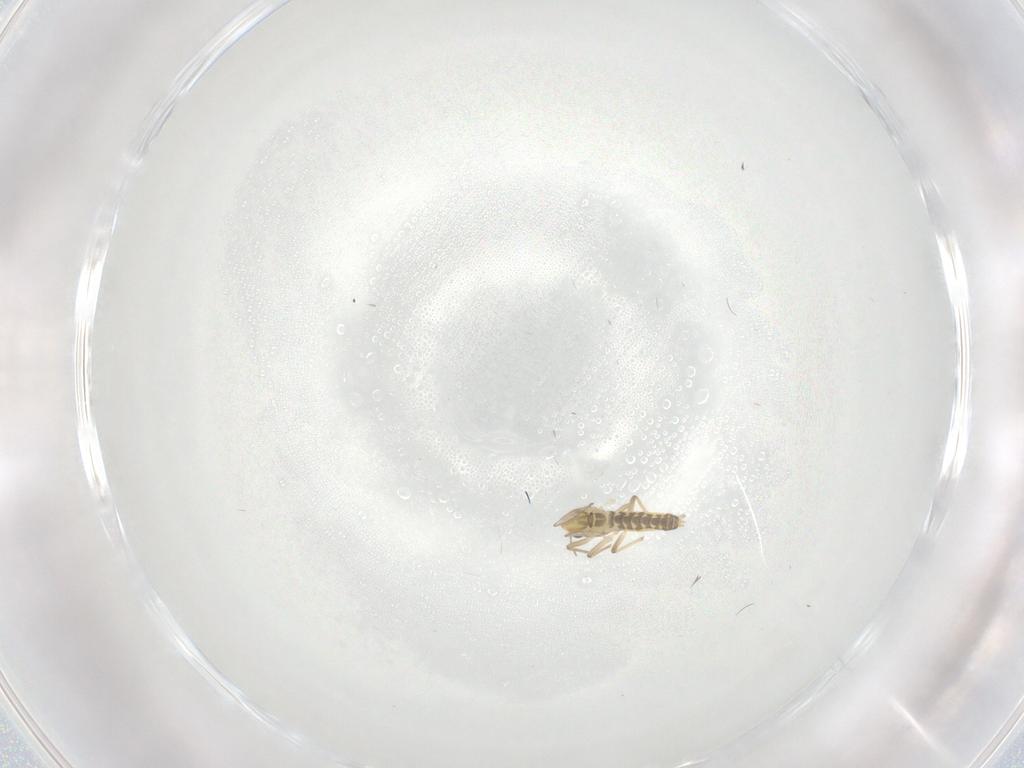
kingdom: Animalia
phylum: Arthropoda
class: Insecta
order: Diptera
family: Chironomidae
